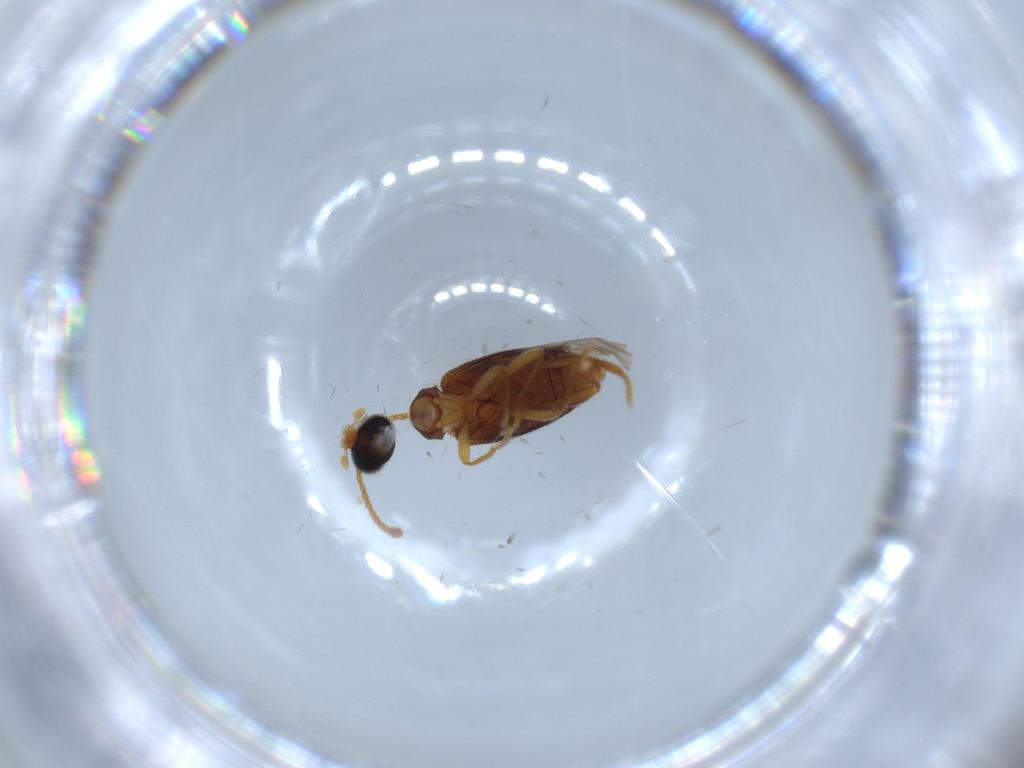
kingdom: Animalia
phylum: Arthropoda
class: Insecta
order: Coleoptera
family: Aderidae
